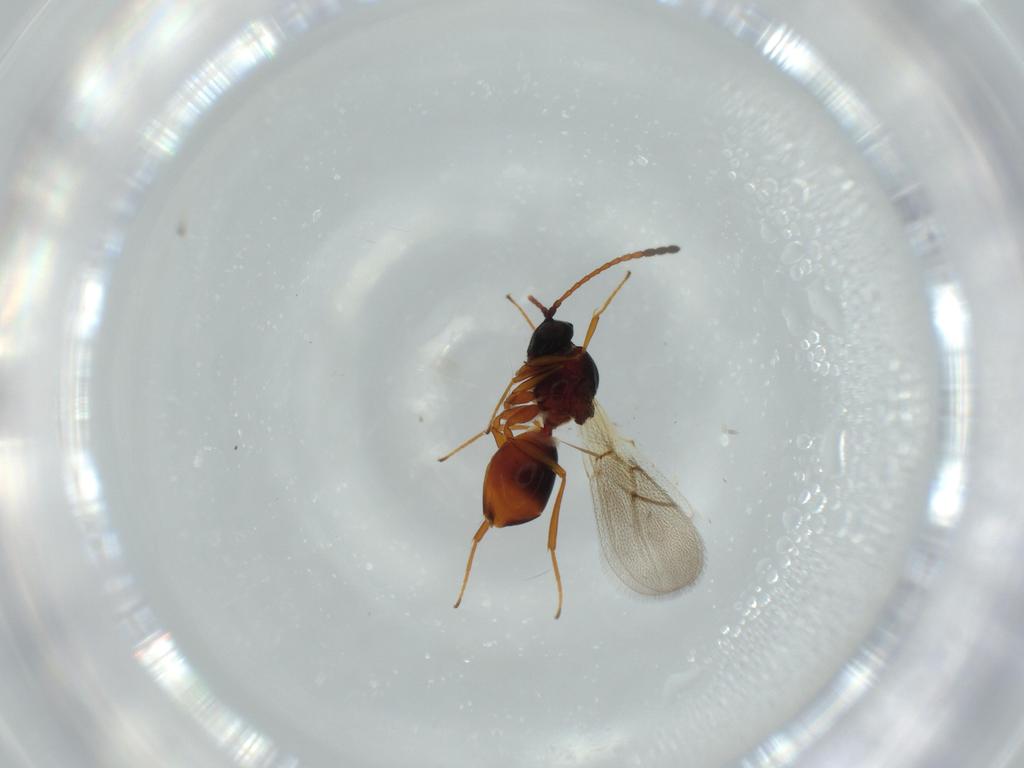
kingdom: Animalia
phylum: Arthropoda
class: Insecta
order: Hymenoptera
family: Figitidae
